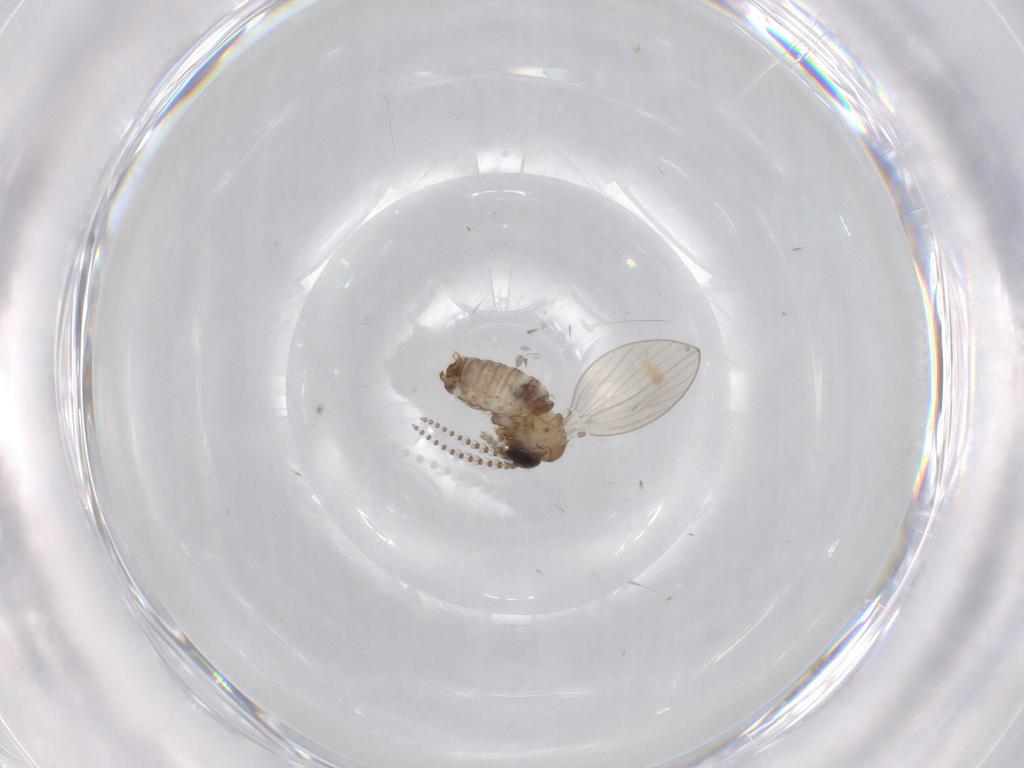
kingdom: Animalia
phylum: Arthropoda
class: Insecta
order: Diptera
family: Psychodidae
